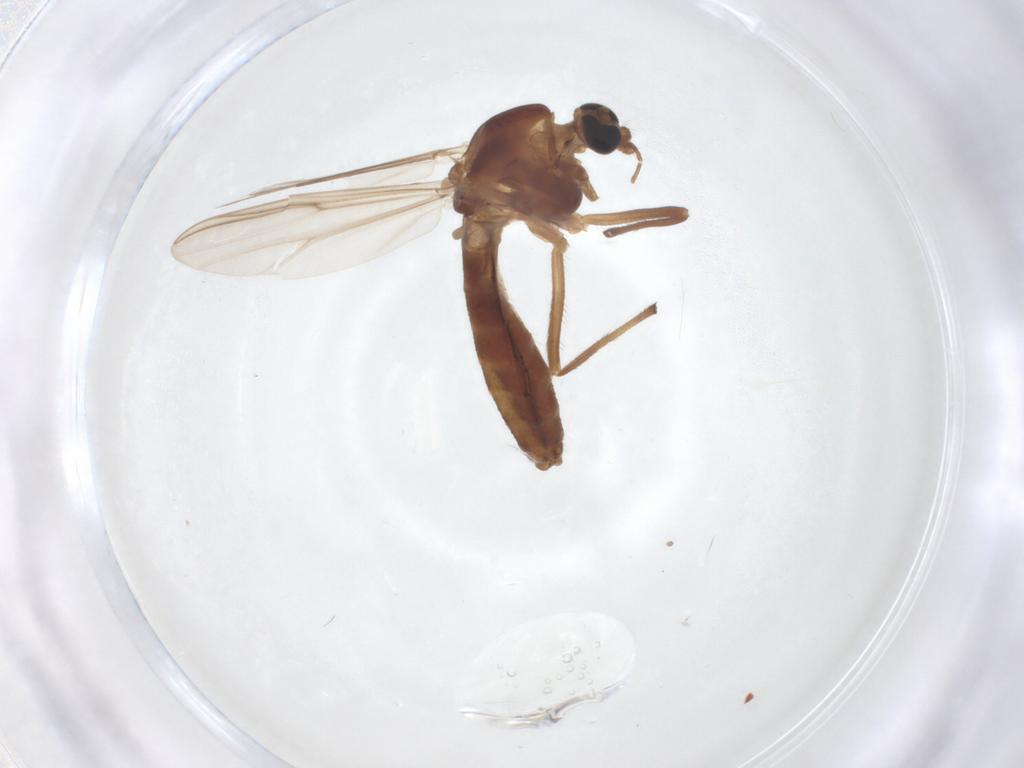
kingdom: Animalia
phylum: Arthropoda
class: Insecta
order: Diptera
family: Chironomidae
